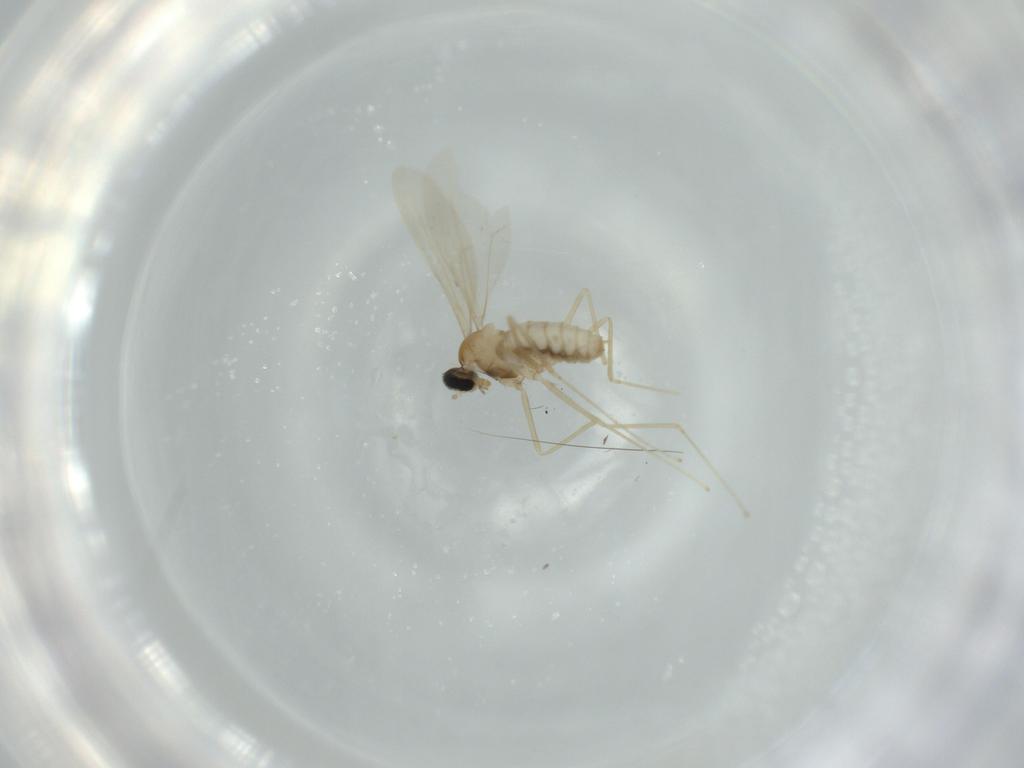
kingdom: Animalia
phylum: Arthropoda
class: Insecta
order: Diptera
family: Cecidomyiidae
